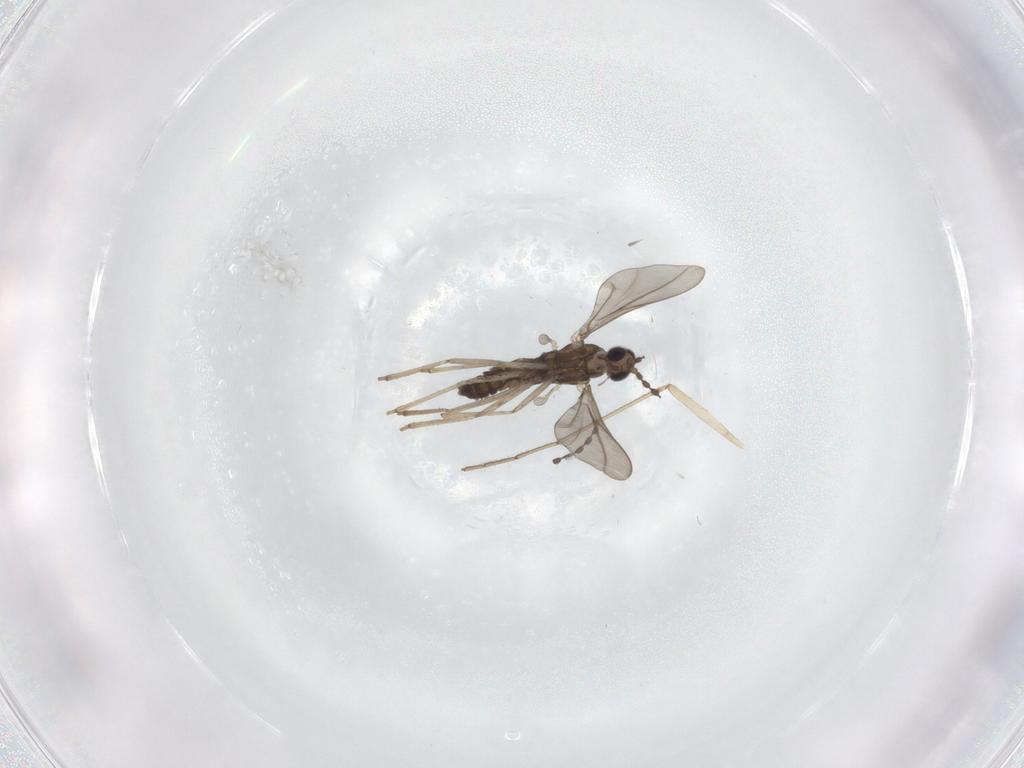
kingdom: Animalia
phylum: Arthropoda
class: Insecta
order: Diptera
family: Cecidomyiidae
